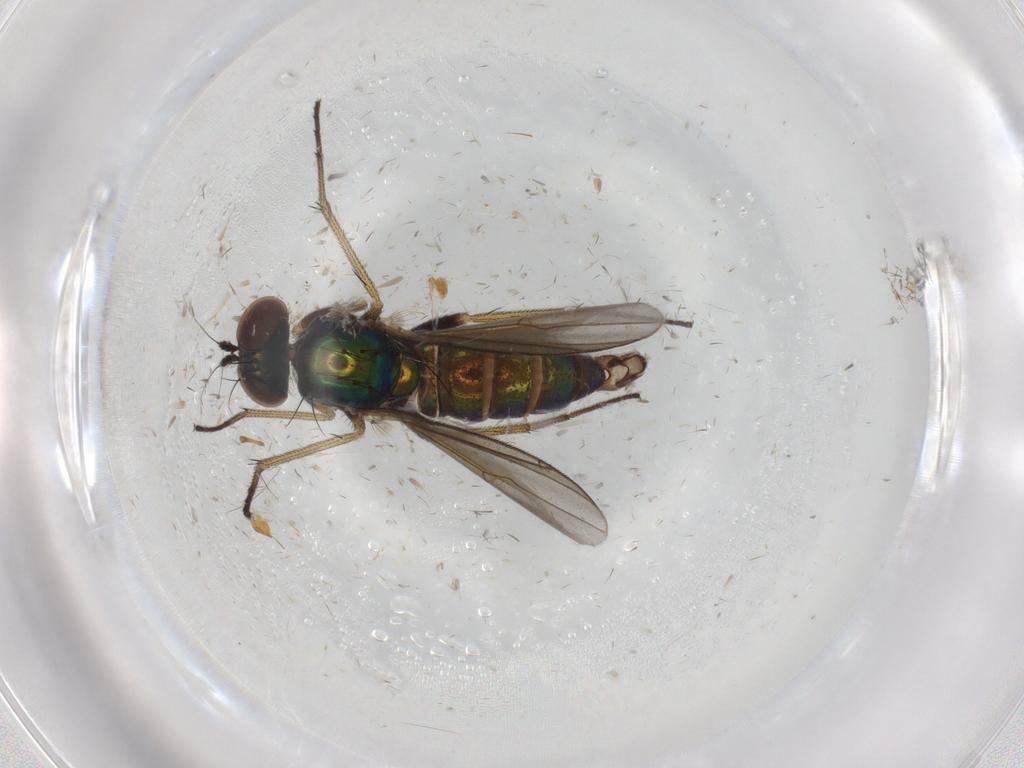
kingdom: Animalia
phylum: Arthropoda
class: Insecta
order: Diptera
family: Dolichopodidae
